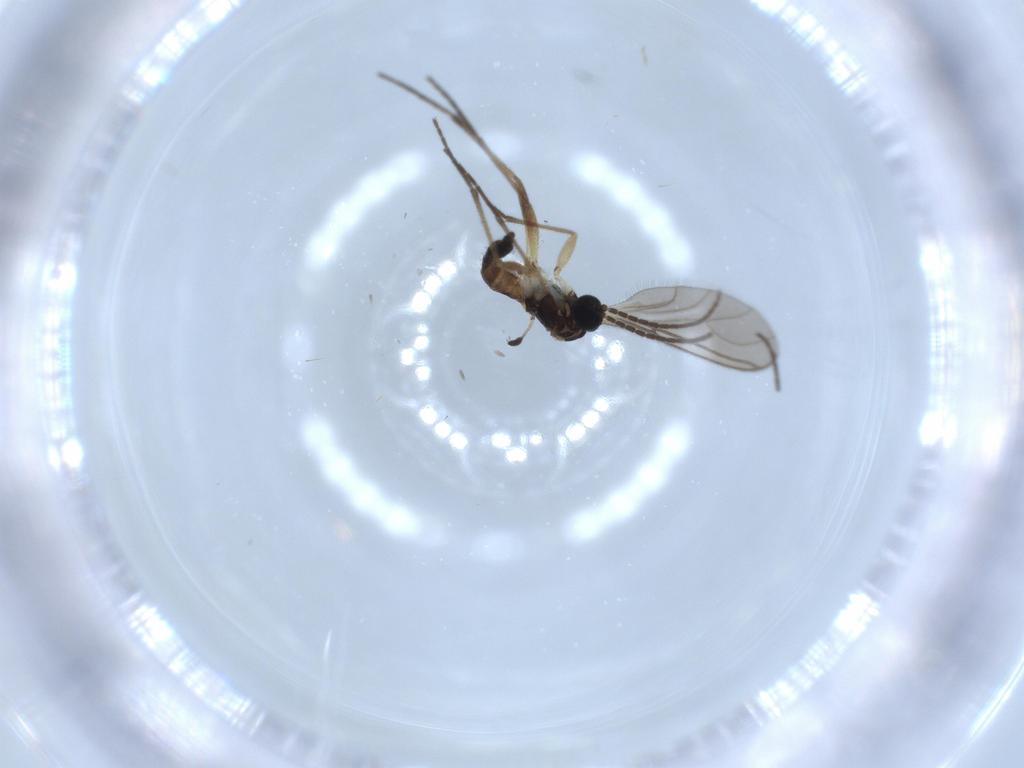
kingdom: Animalia
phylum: Arthropoda
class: Insecta
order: Diptera
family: Sciaridae
